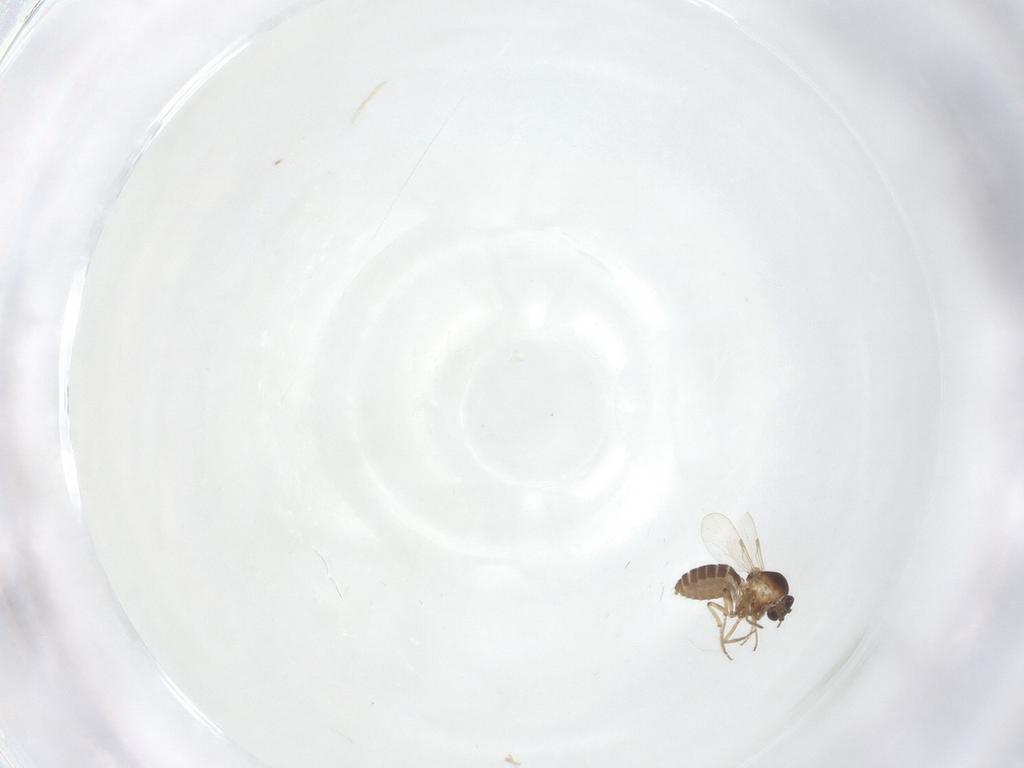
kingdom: Animalia
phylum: Arthropoda
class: Insecta
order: Diptera
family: Ceratopogonidae
